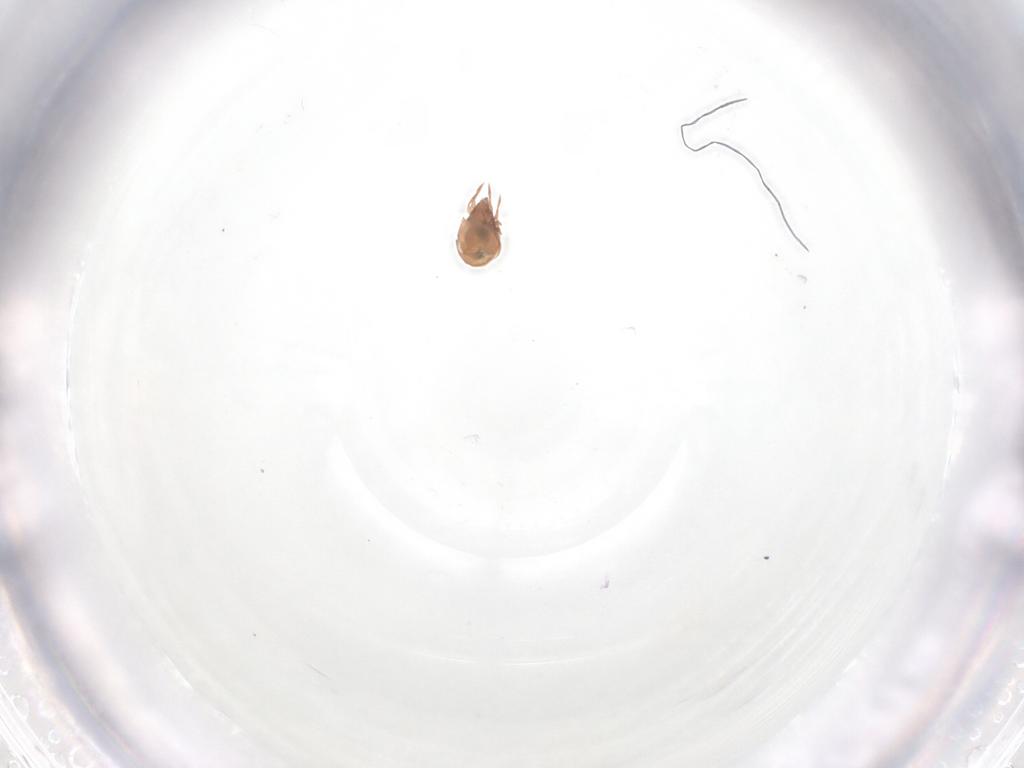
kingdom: Animalia
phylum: Arthropoda
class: Arachnida
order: Trombidiformes
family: Anystidae
